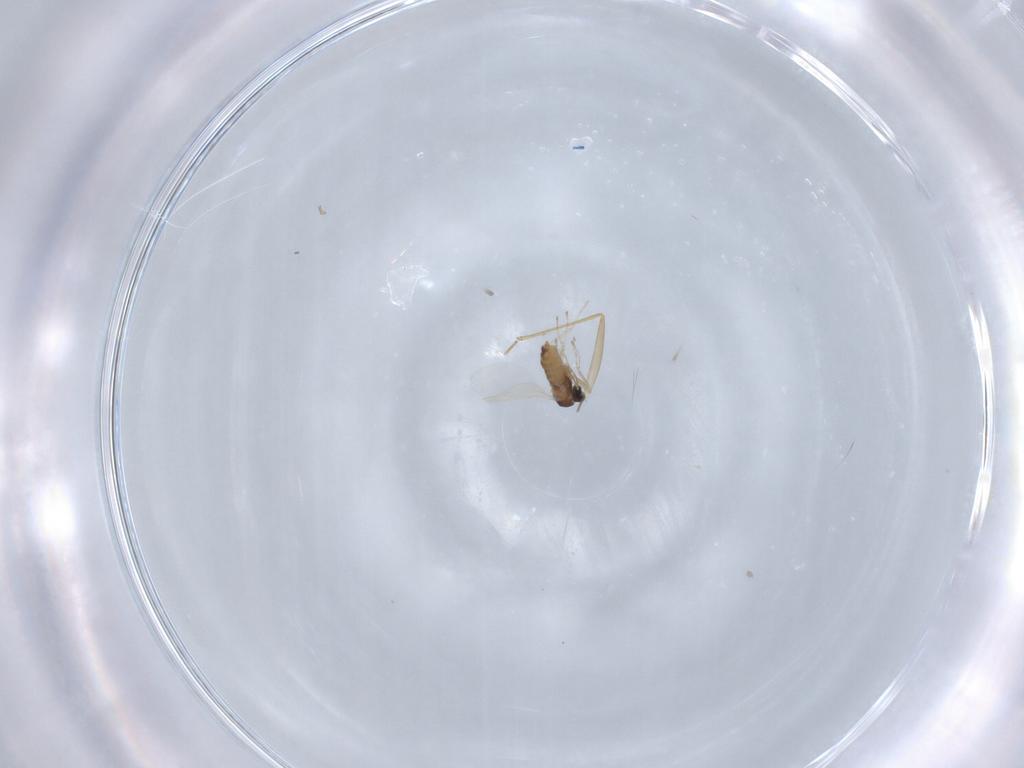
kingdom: Animalia
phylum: Arthropoda
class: Insecta
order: Diptera
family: Psychodidae
